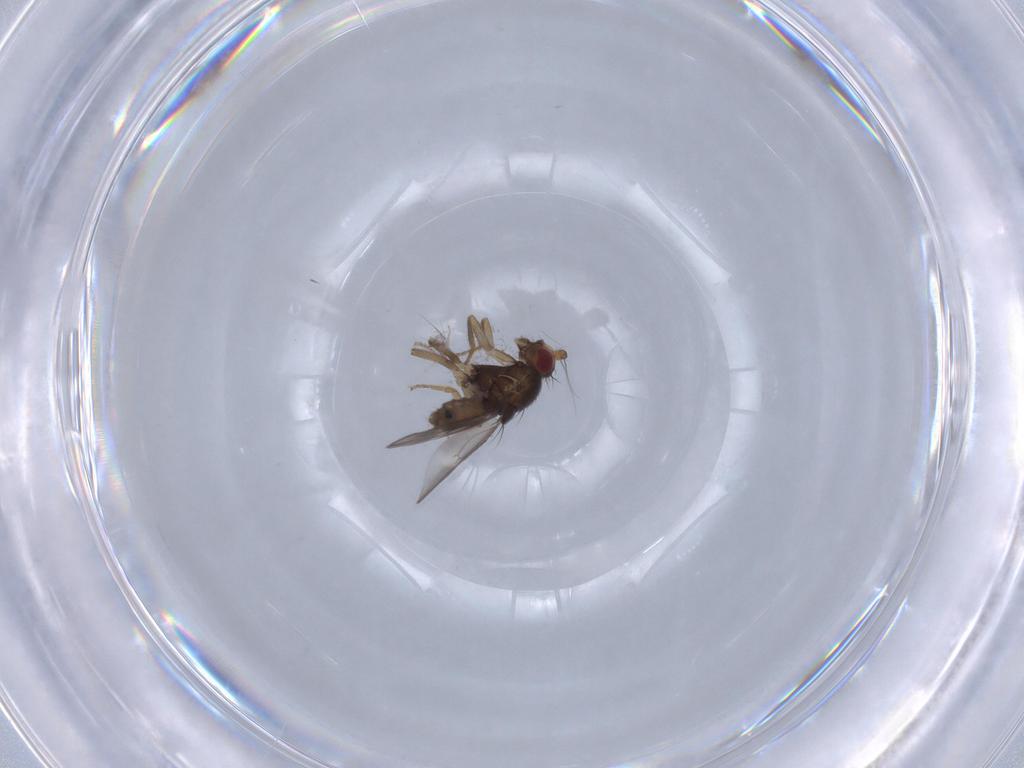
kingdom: Animalia
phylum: Arthropoda
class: Insecta
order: Diptera
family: Sphaeroceridae
